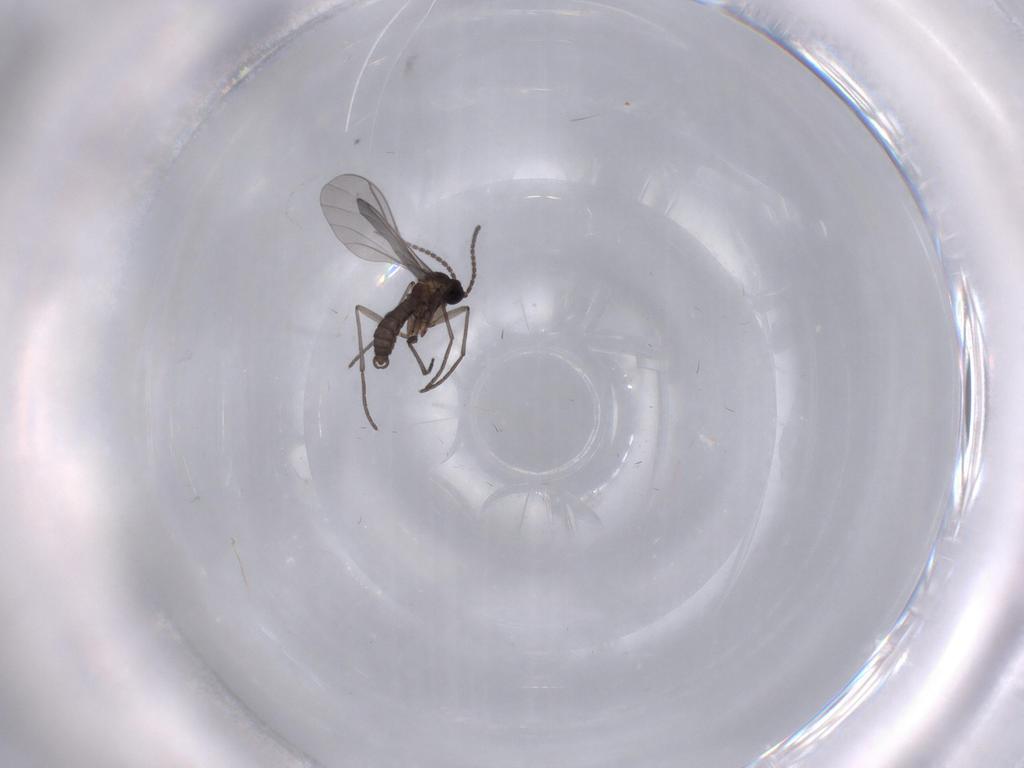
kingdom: Animalia
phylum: Arthropoda
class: Insecta
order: Diptera
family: Sciaridae
